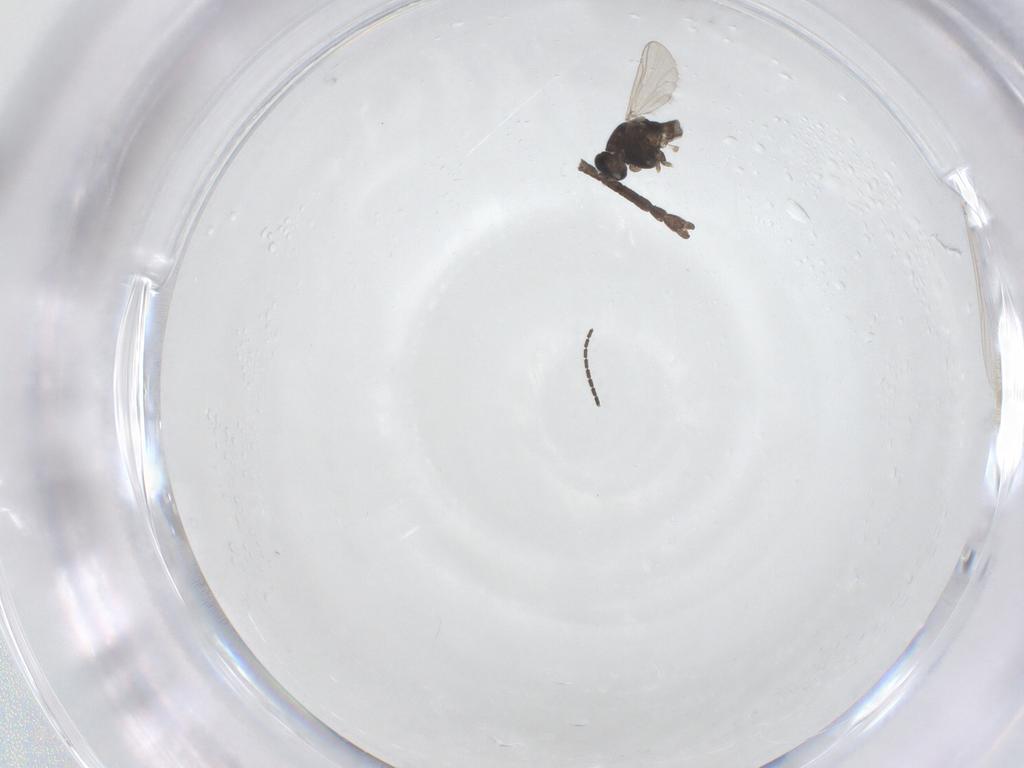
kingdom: Animalia
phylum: Arthropoda
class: Insecta
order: Diptera
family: Chironomidae
